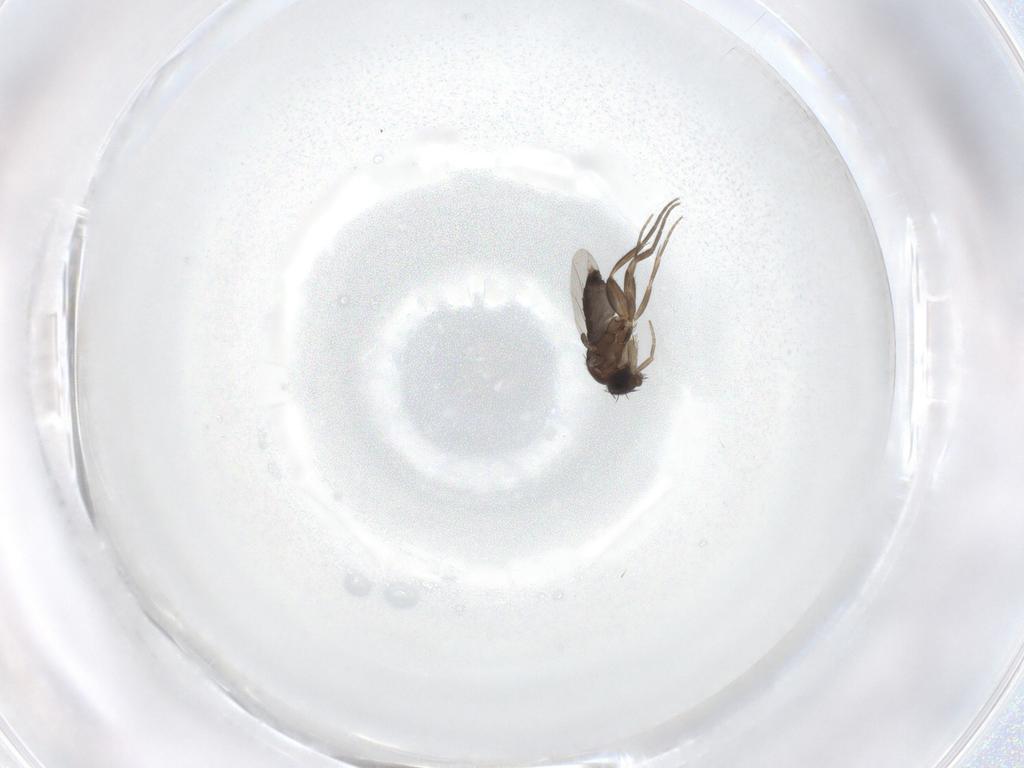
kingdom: Animalia
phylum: Arthropoda
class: Insecta
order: Diptera
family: Phoridae
